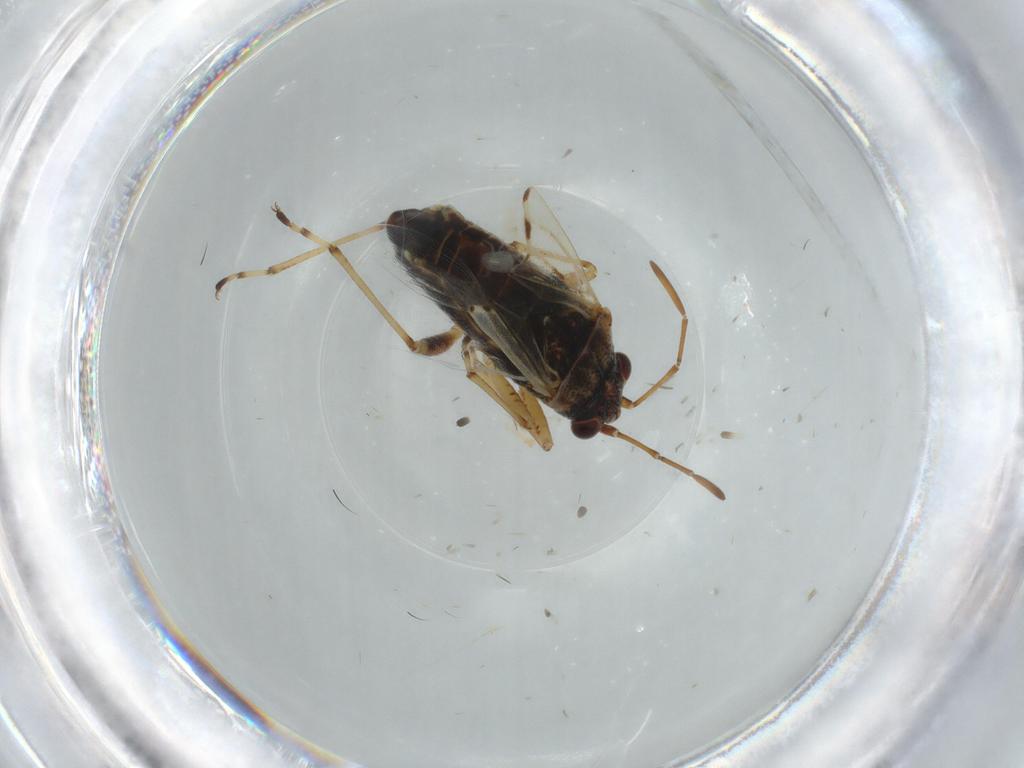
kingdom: Animalia
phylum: Arthropoda
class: Insecta
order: Hemiptera
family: Lygaeidae
